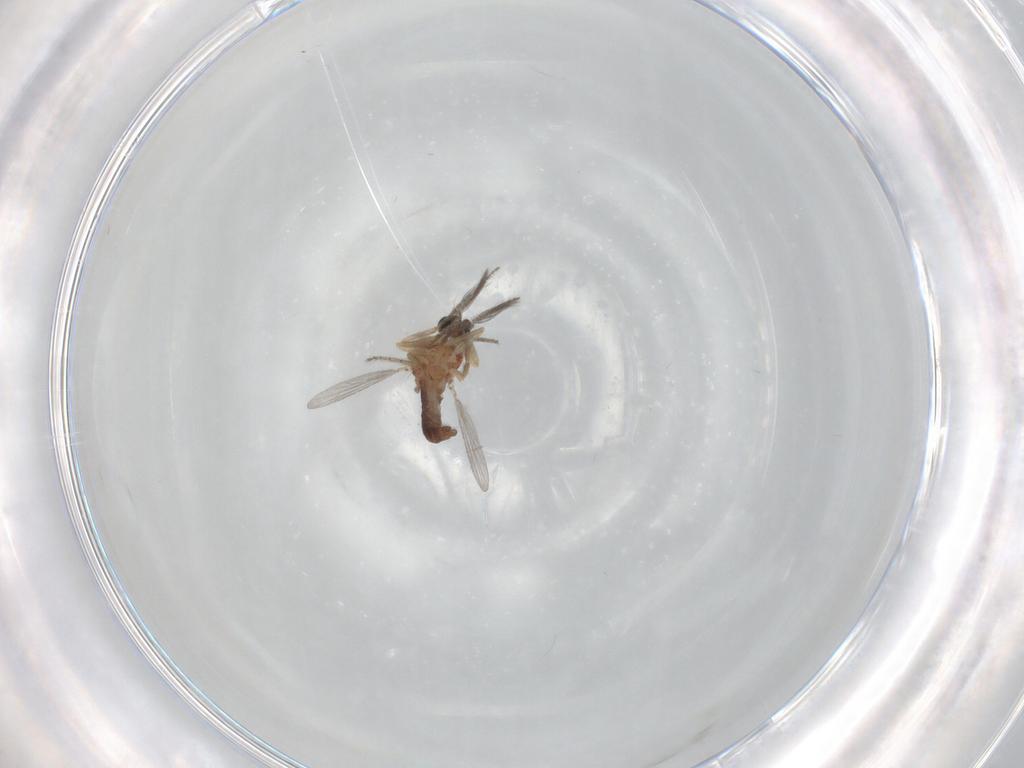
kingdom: Animalia
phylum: Arthropoda
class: Insecta
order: Diptera
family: Ceratopogonidae
